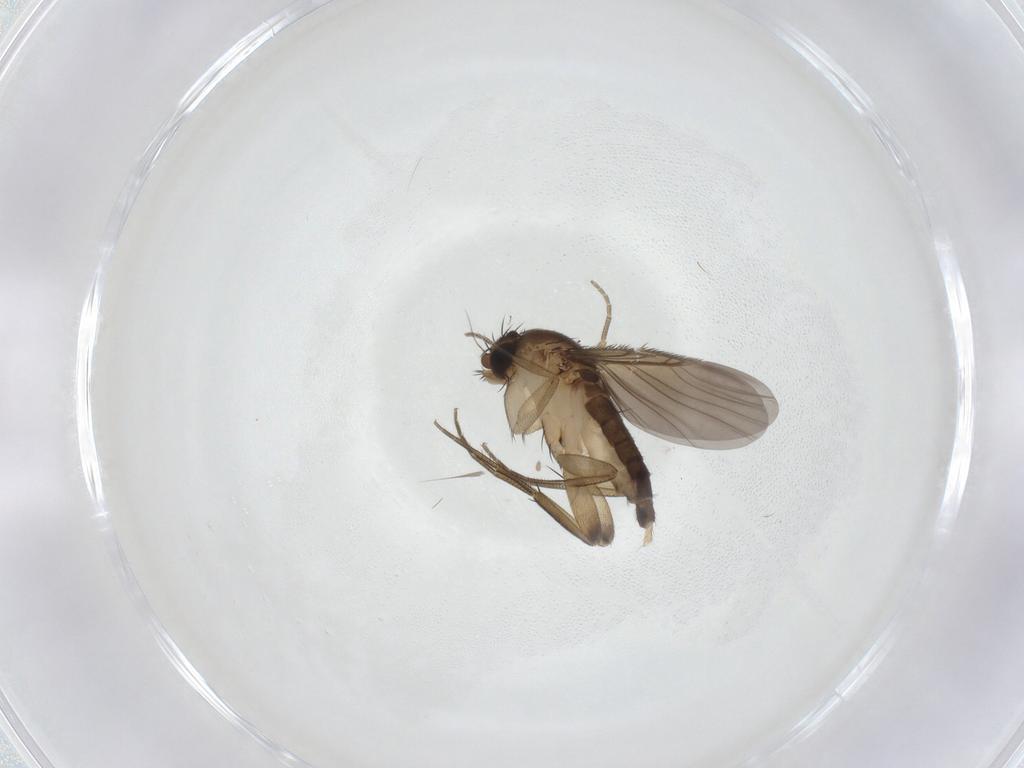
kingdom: Animalia
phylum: Arthropoda
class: Insecta
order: Diptera
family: Phoridae
